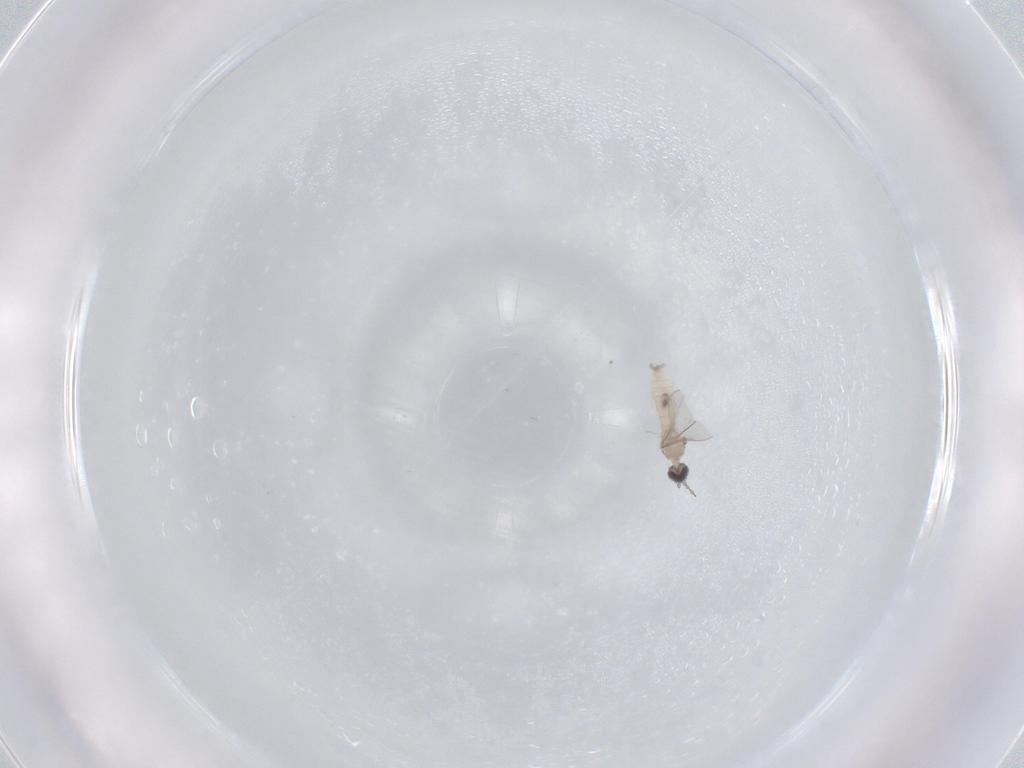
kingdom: Animalia
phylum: Arthropoda
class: Insecta
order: Diptera
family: Cecidomyiidae
